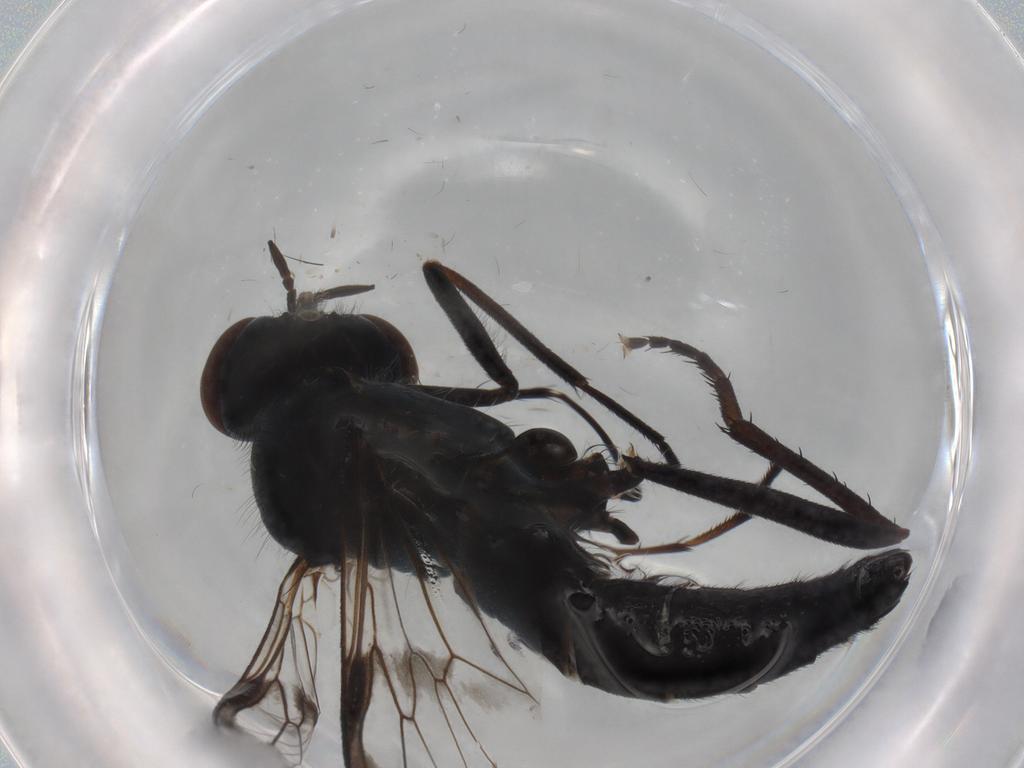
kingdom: Animalia
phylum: Arthropoda
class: Insecta
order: Diptera
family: Therevidae
